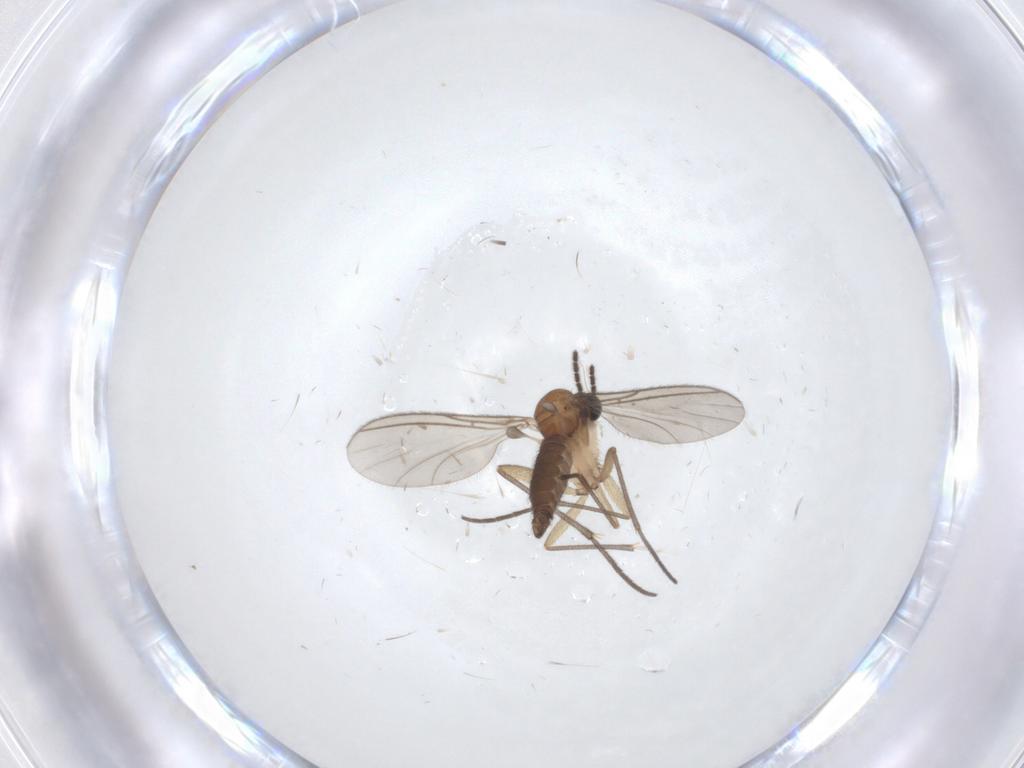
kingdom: Animalia
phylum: Arthropoda
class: Insecta
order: Diptera
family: Sciaridae
